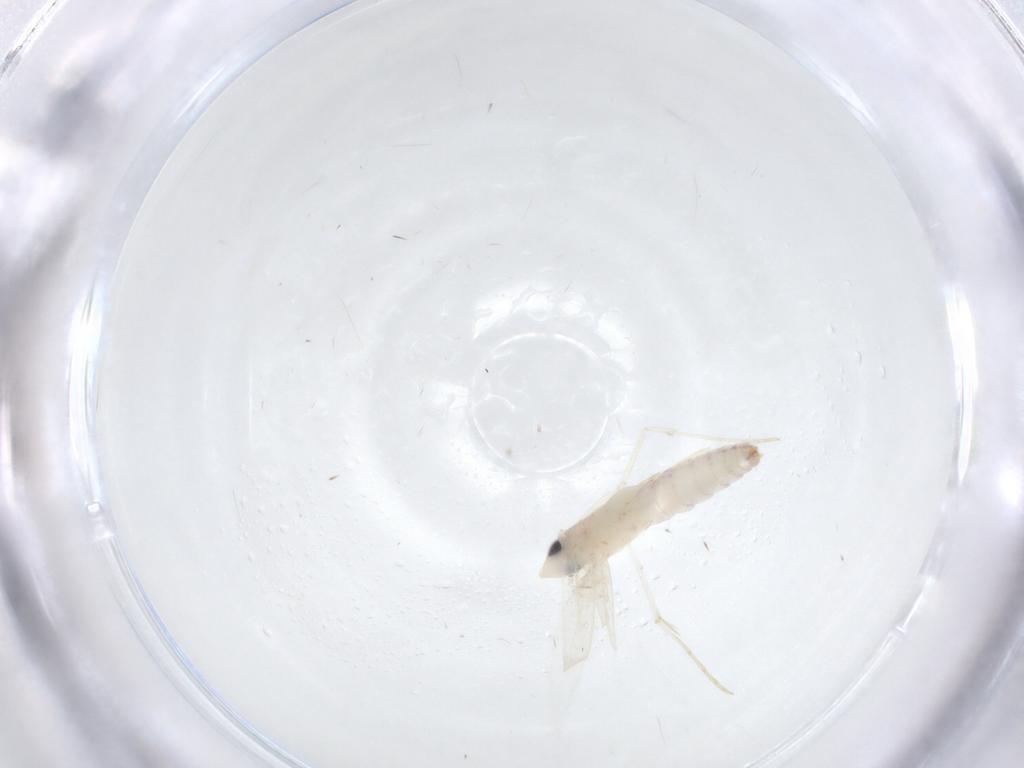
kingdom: Animalia
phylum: Arthropoda
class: Insecta
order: Lepidoptera
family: Tineidae
